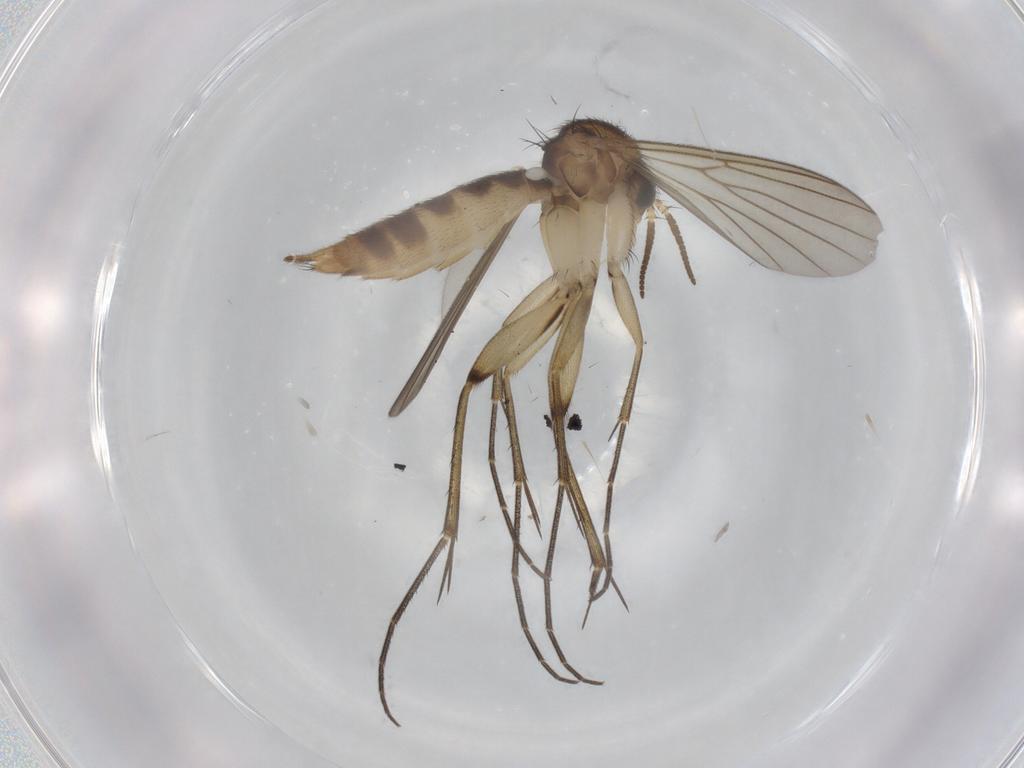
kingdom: Animalia
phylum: Arthropoda
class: Insecta
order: Diptera
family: Mycetophilidae
